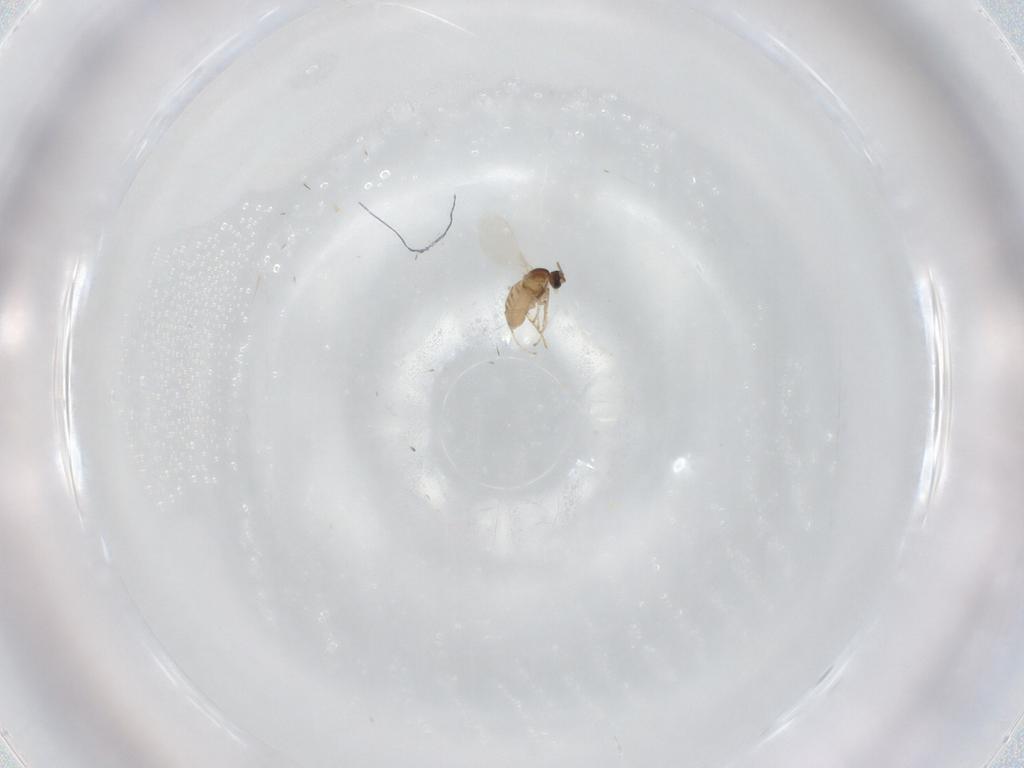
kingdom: Animalia
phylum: Arthropoda
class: Insecta
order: Diptera
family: Cecidomyiidae
